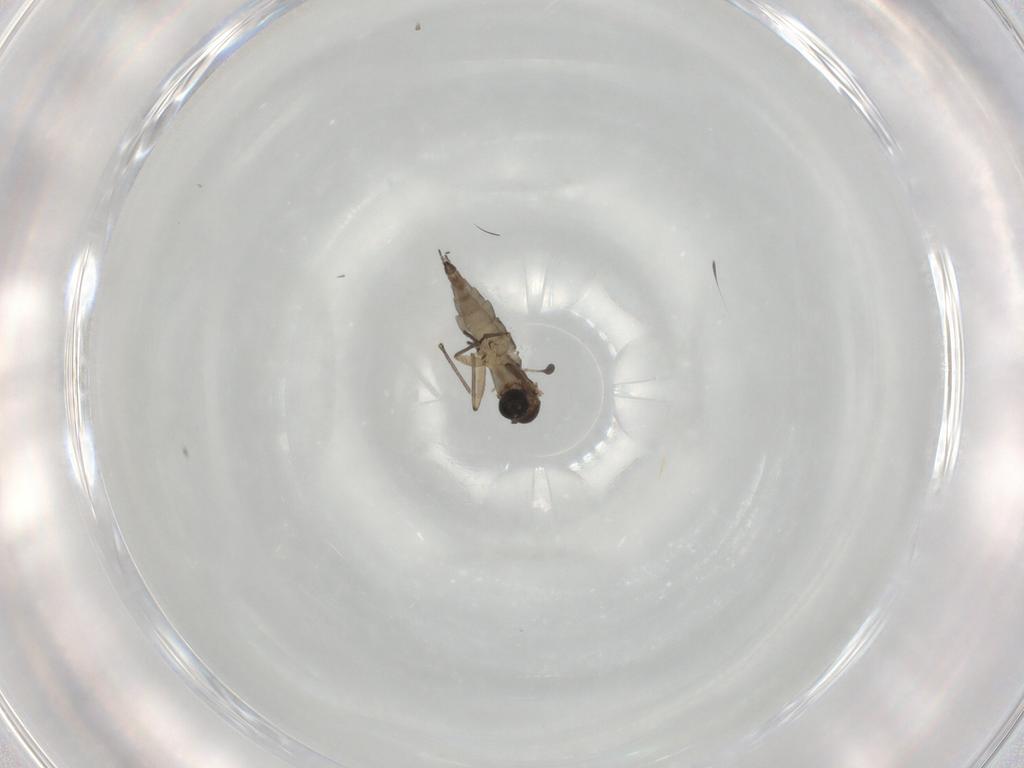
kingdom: Animalia
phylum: Arthropoda
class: Insecta
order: Diptera
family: Sciaridae
